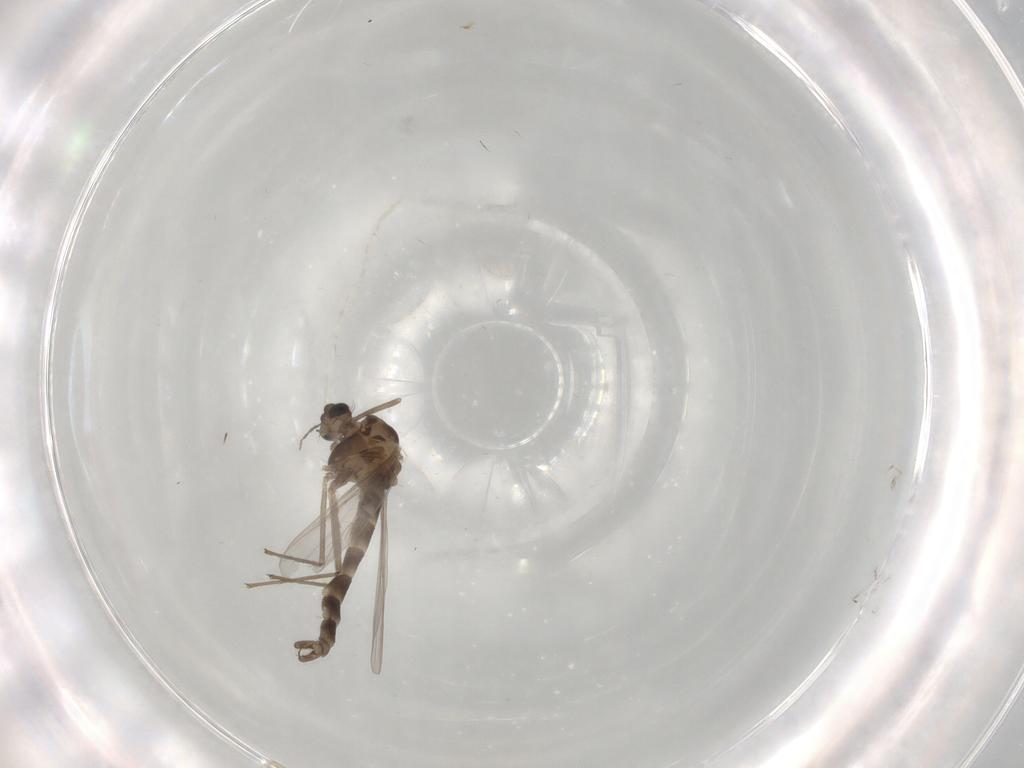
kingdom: Animalia
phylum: Arthropoda
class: Insecta
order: Diptera
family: Chironomidae
